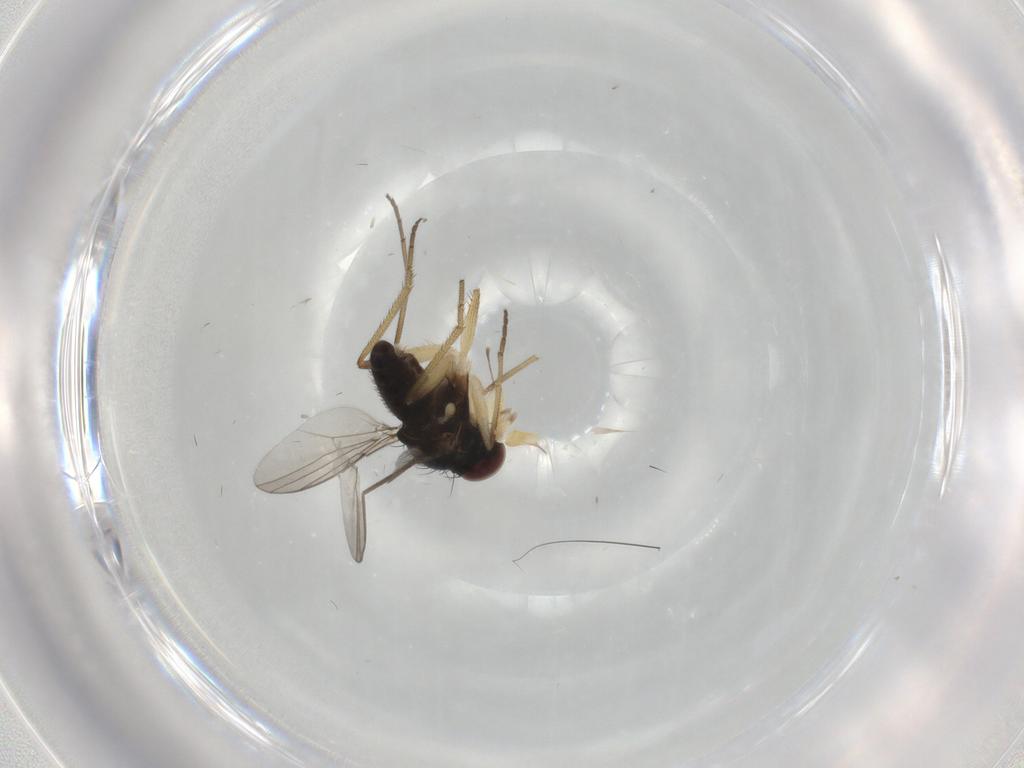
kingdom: Animalia
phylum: Arthropoda
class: Insecta
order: Diptera
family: Dolichopodidae
